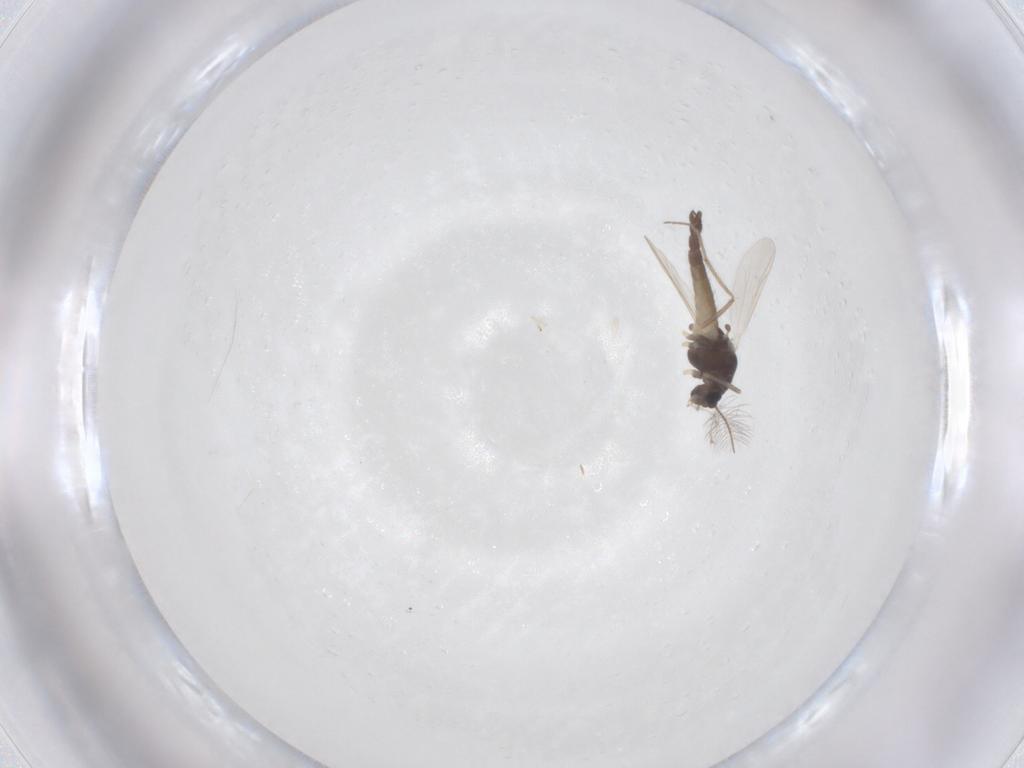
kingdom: Animalia
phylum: Arthropoda
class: Insecta
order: Diptera
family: Chironomidae
